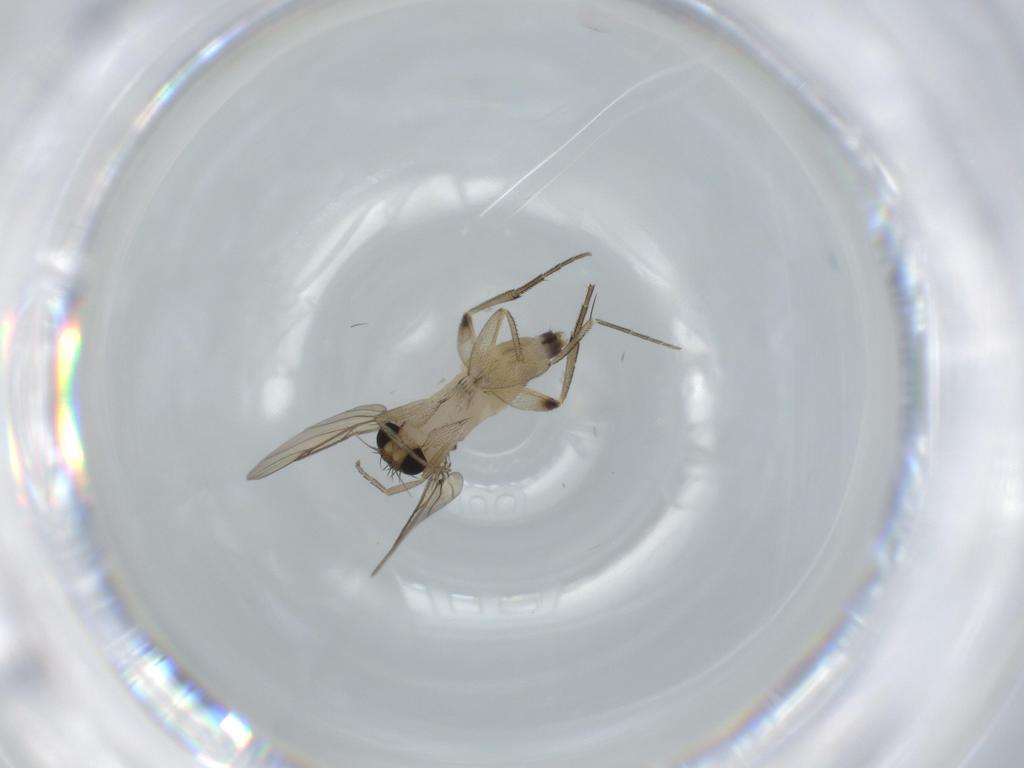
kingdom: Animalia
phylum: Arthropoda
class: Insecta
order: Diptera
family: Phoridae
